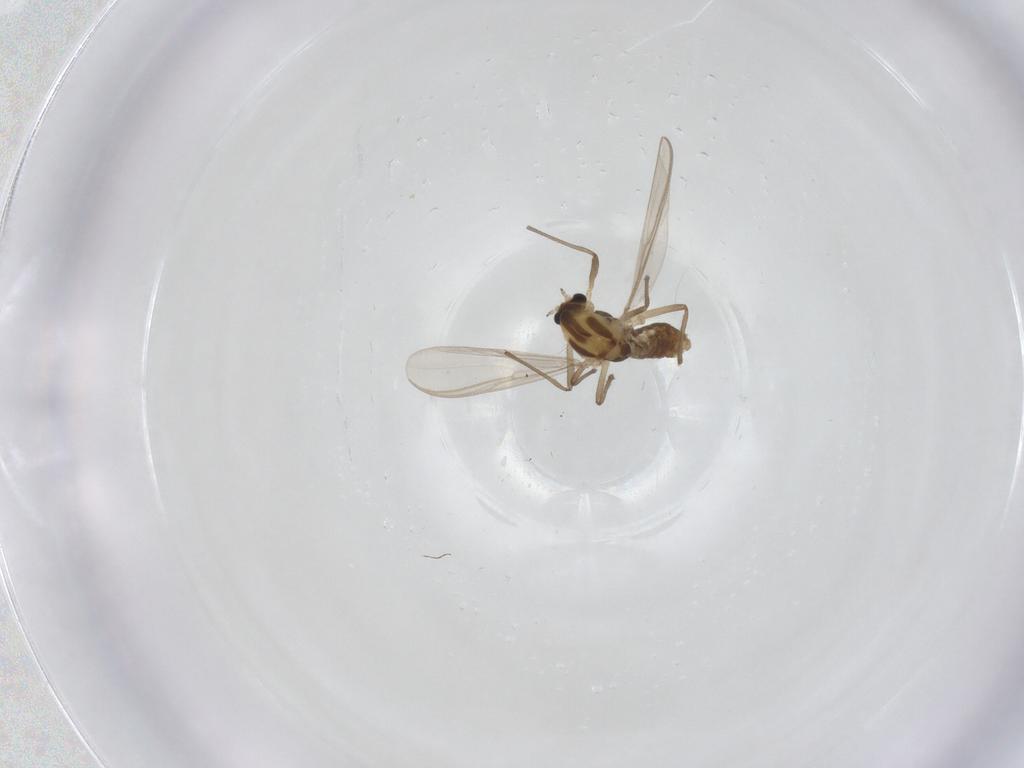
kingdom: Animalia
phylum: Arthropoda
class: Insecta
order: Diptera
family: Chironomidae
